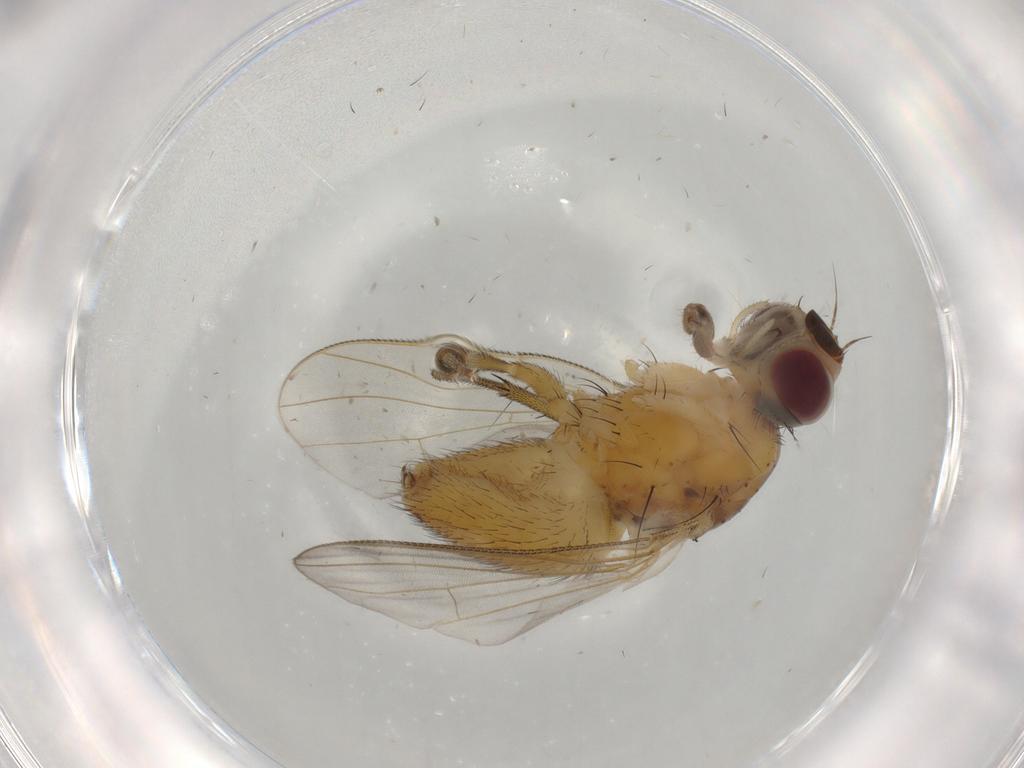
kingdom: Animalia
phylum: Arthropoda
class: Insecta
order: Diptera
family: Muscidae
